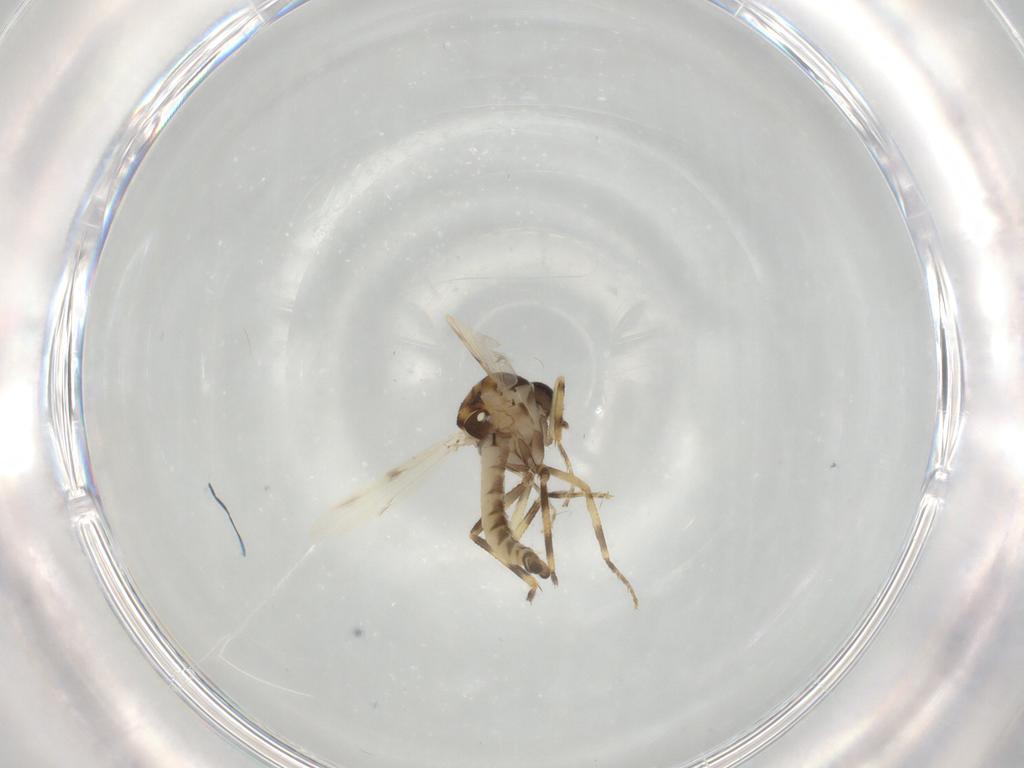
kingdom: Animalia
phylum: Arthropoda
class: Insecta
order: Diptera
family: Ceratopogonidae
